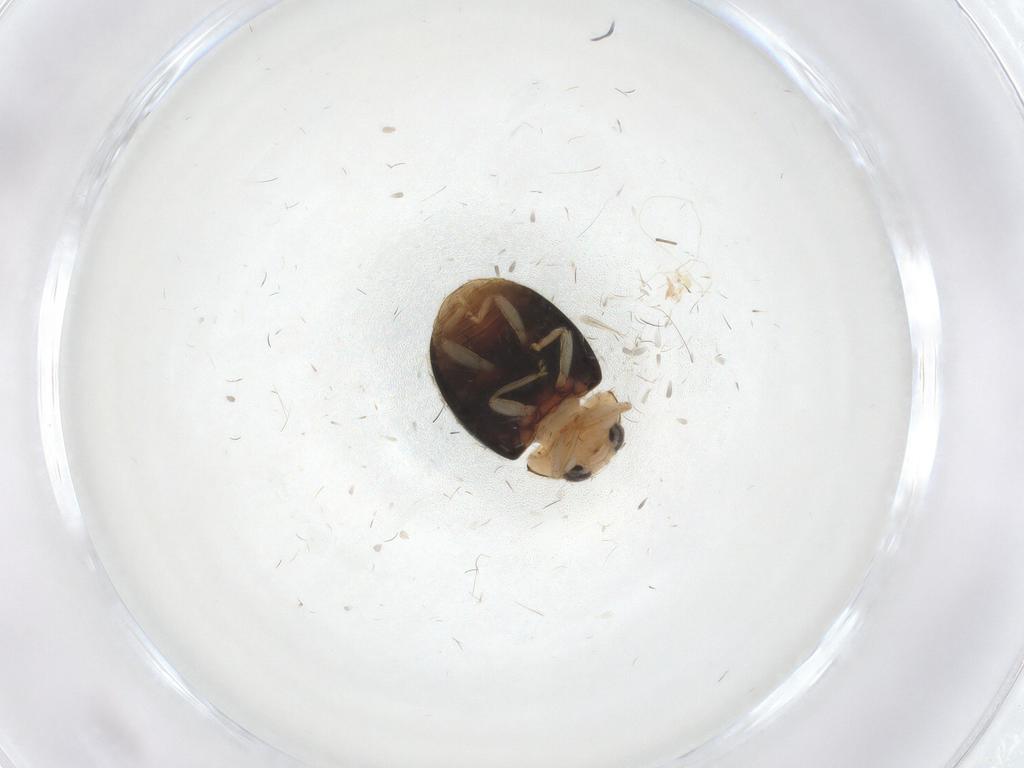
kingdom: Animalia
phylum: Arthropoda
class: Insecta
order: Coleoptera
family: Coccinellidae
